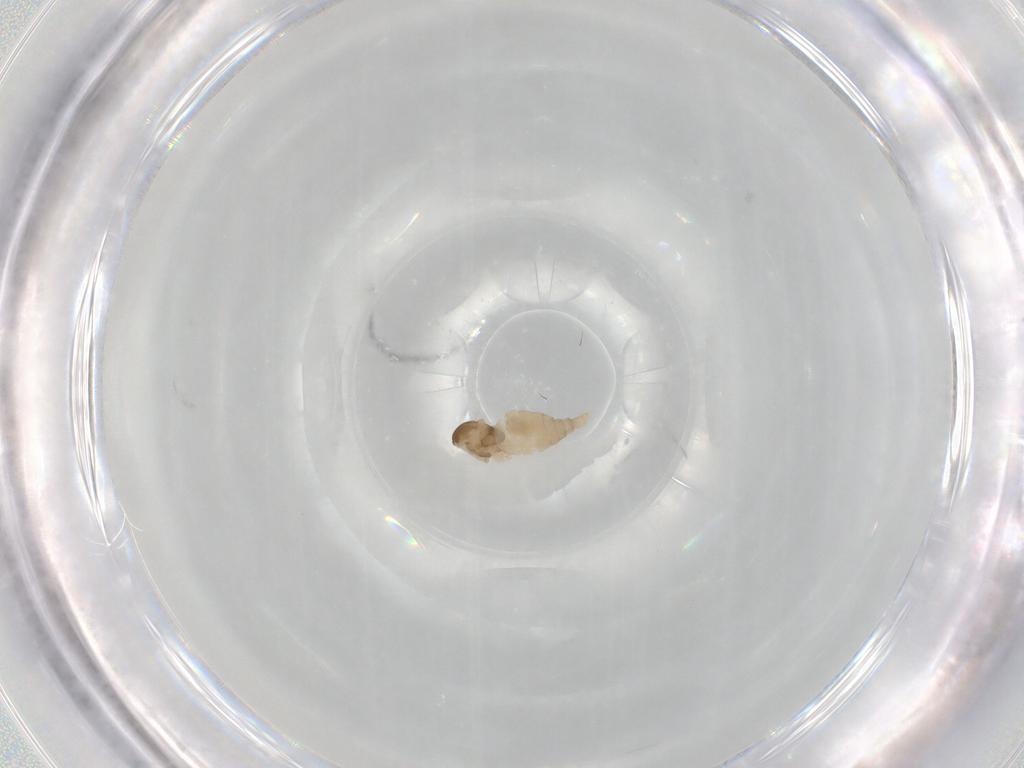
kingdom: Animalia
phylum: Arthropoda
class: Insecta
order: Diptera
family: Cecidomyiidae
